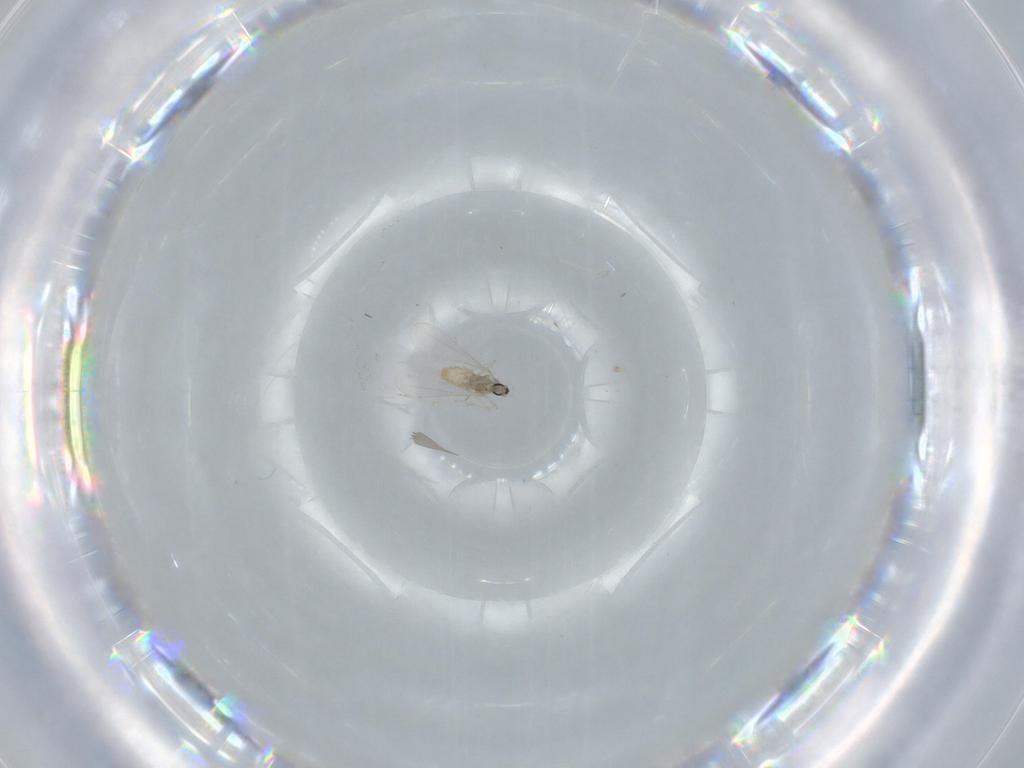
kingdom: Animalia
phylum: Arthropoda
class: Insecta
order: Diptera
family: Cecidomyiidae
